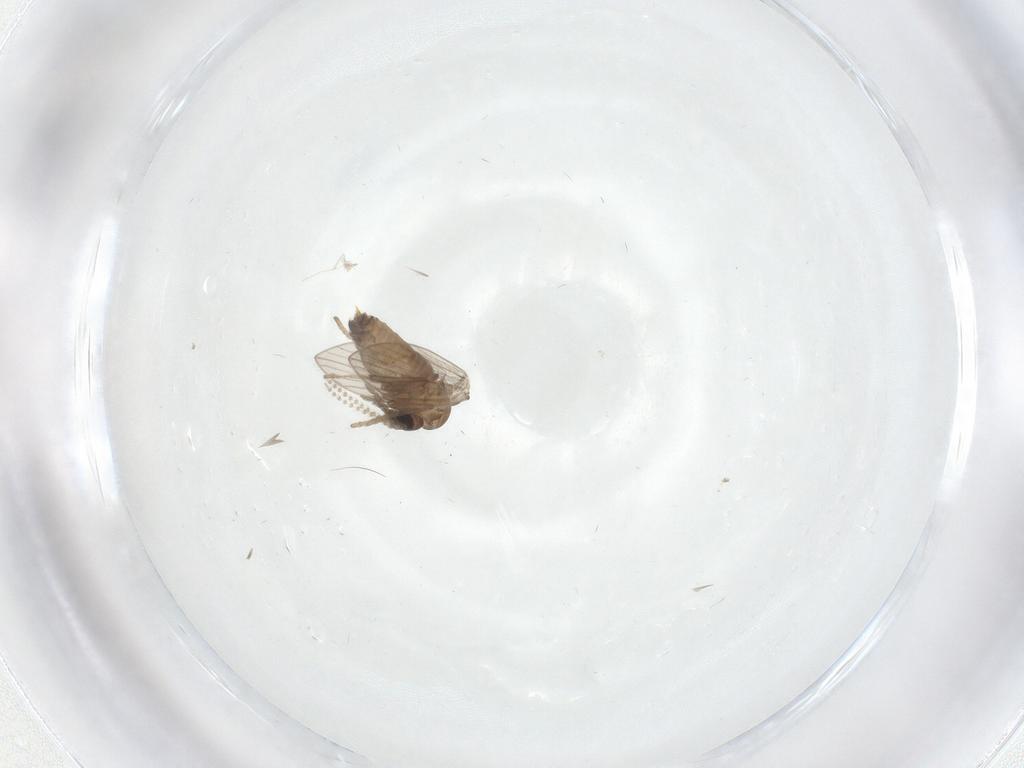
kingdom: Animalia
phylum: Arthropoda
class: Insecta
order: Diptera
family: Psychodidae
